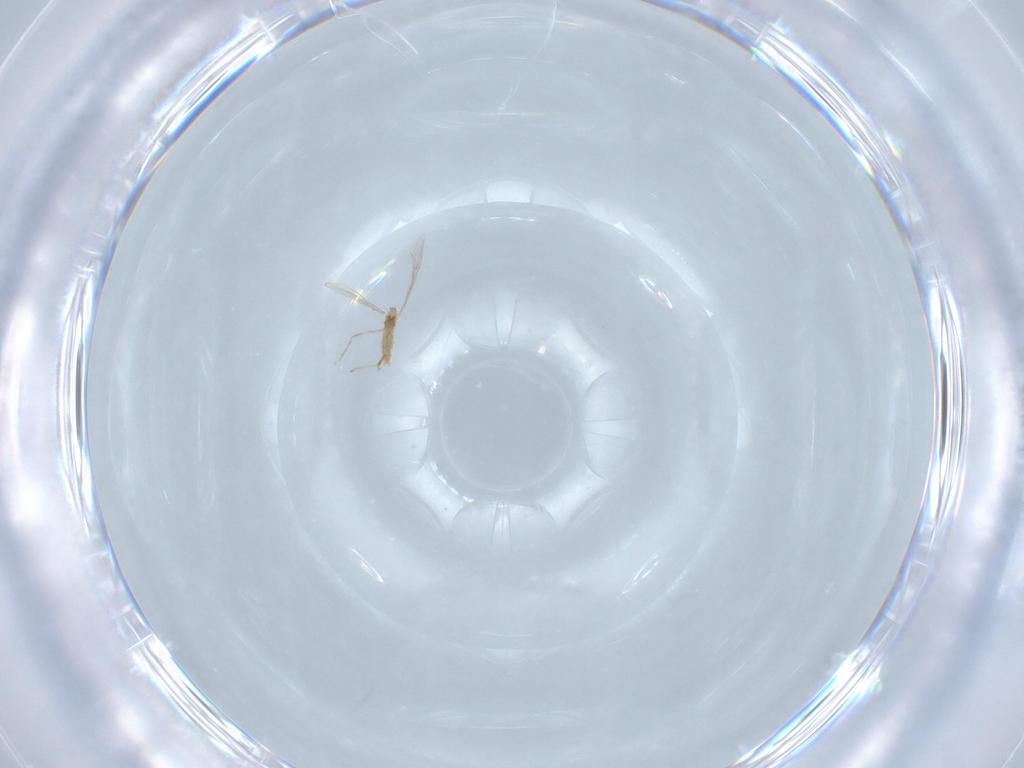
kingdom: Animalia
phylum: Arthropoda
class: Insecta
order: Diptera
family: Cecidomyiidae
